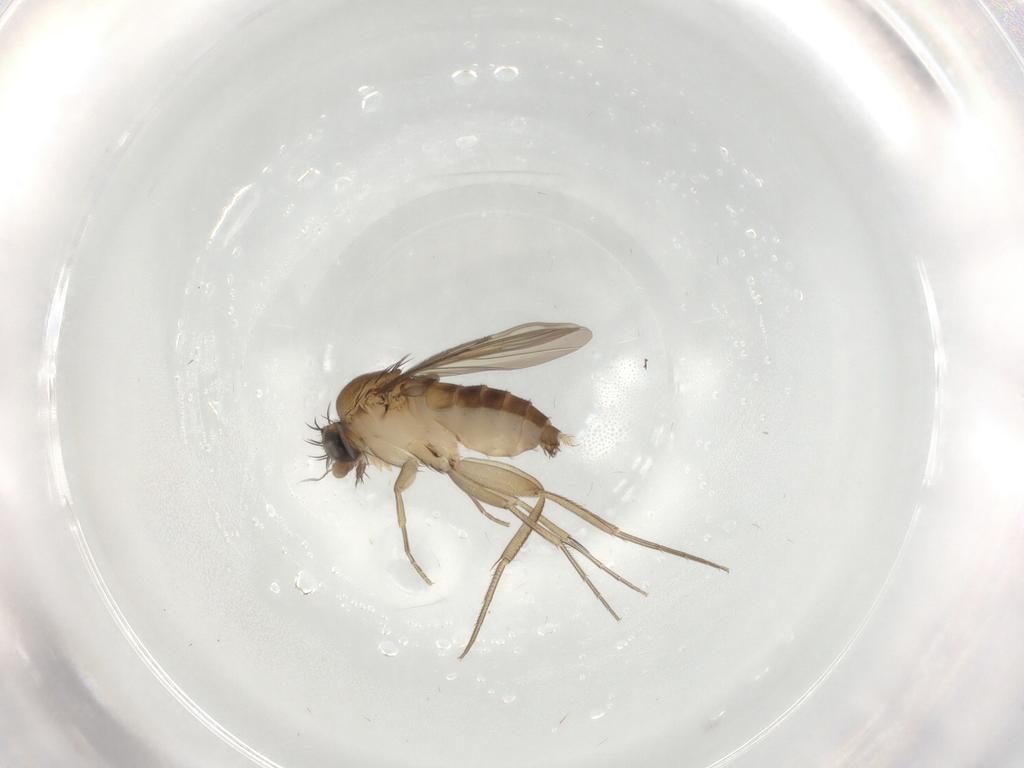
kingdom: Animalia
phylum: Arthropoda
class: Insecta
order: Diptera
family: Phoridae
